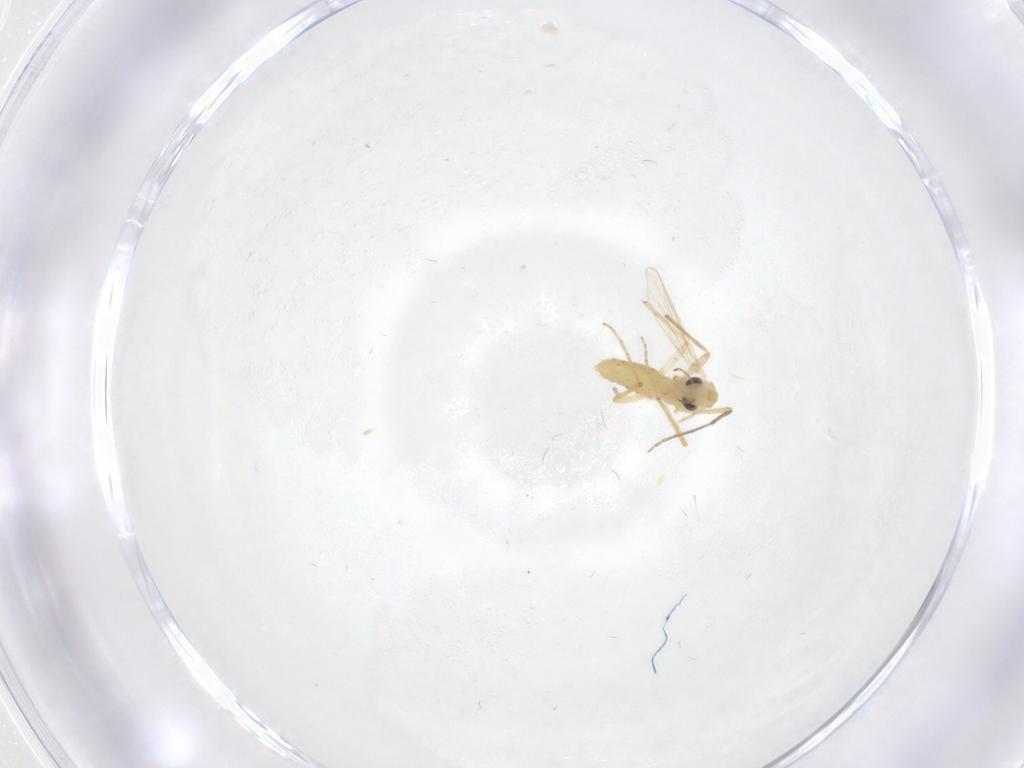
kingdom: Animalia
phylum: Arthropoda
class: Insecta
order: Diptera
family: Chironomidae
